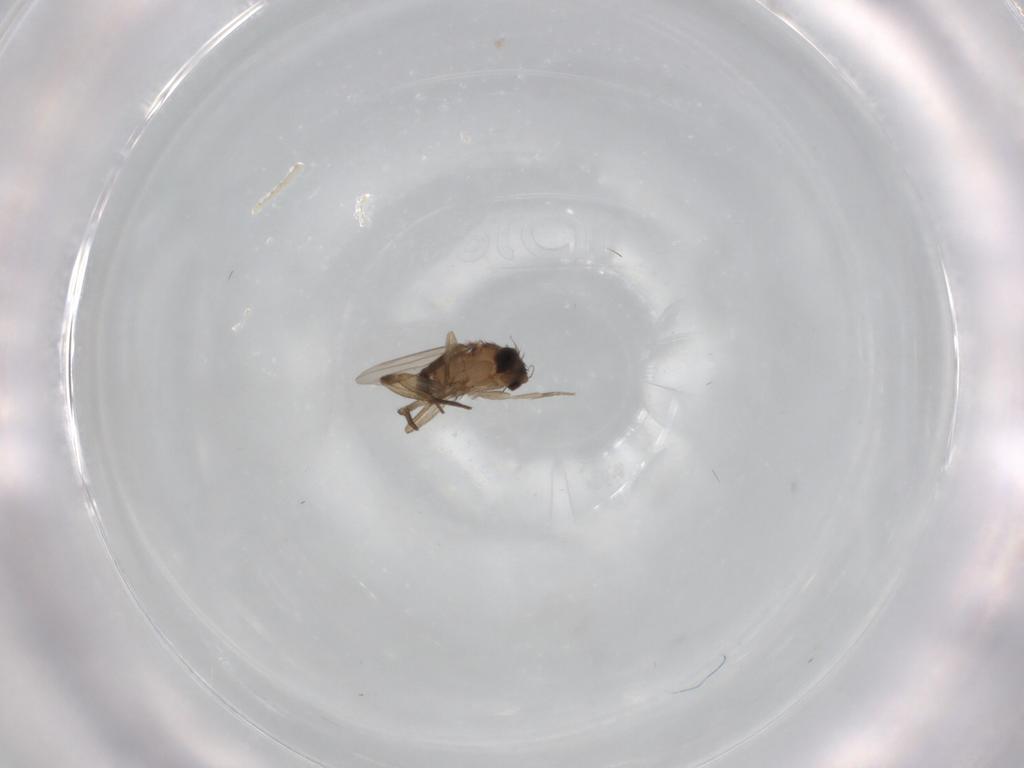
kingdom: Animalia
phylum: Arthropoda
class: Insecta
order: Diptera
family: Phoridae
